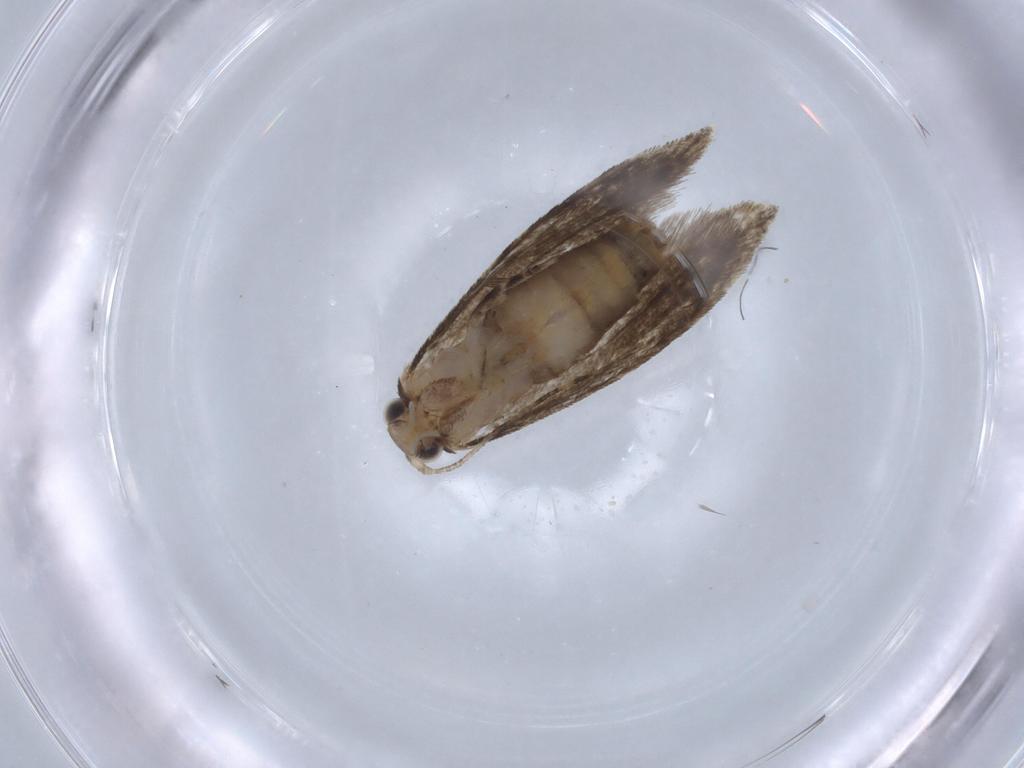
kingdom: Animalia
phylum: Arthropoda
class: Insecta
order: Lepidoptera
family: Tineidae
